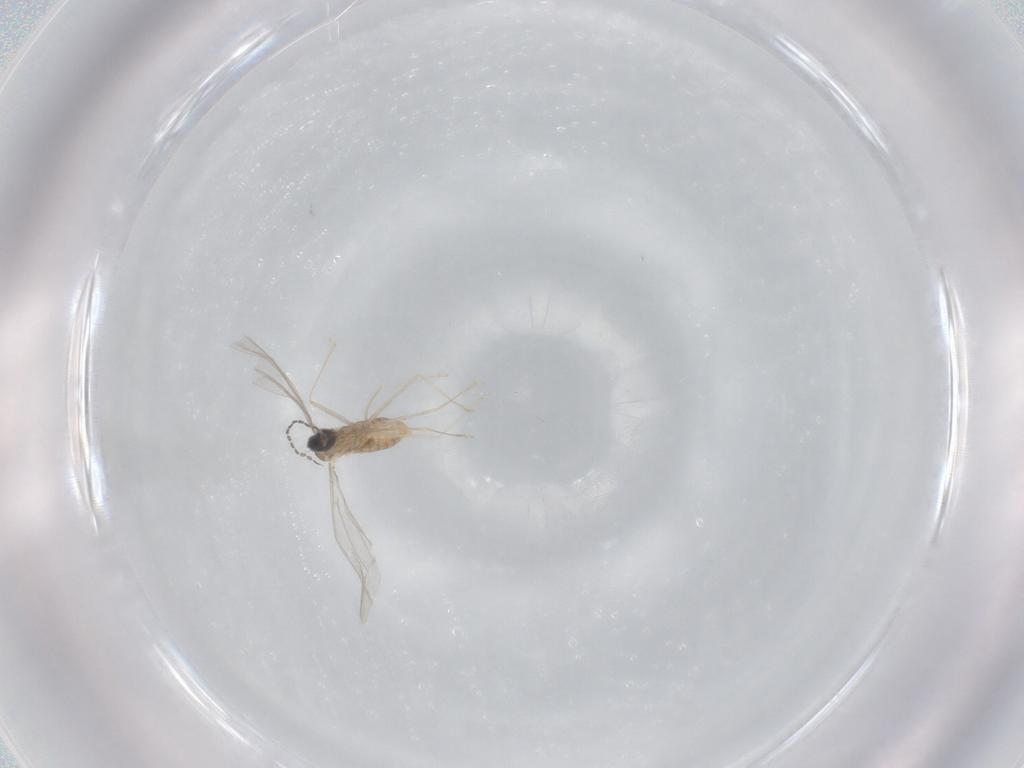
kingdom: Animalia
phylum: Arthropoda
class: Insecta
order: Diptera
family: Cecidomyiidae
